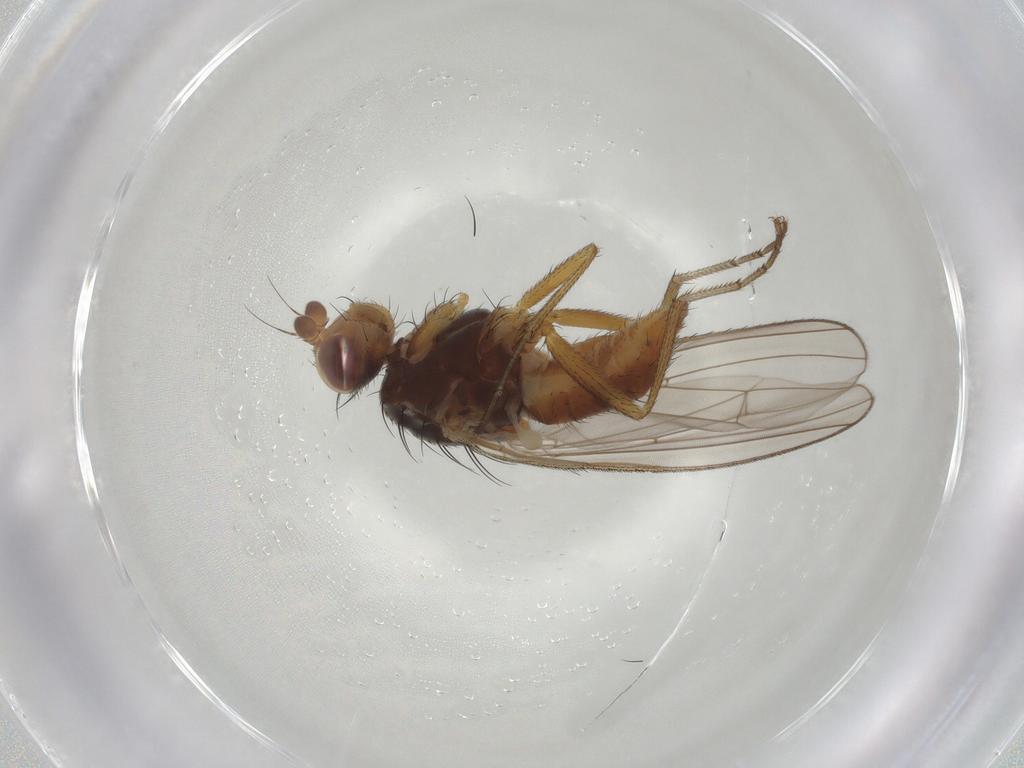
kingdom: Animalia
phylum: Arthropoda
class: Insecta
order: Diptera
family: Heleomyzidae
